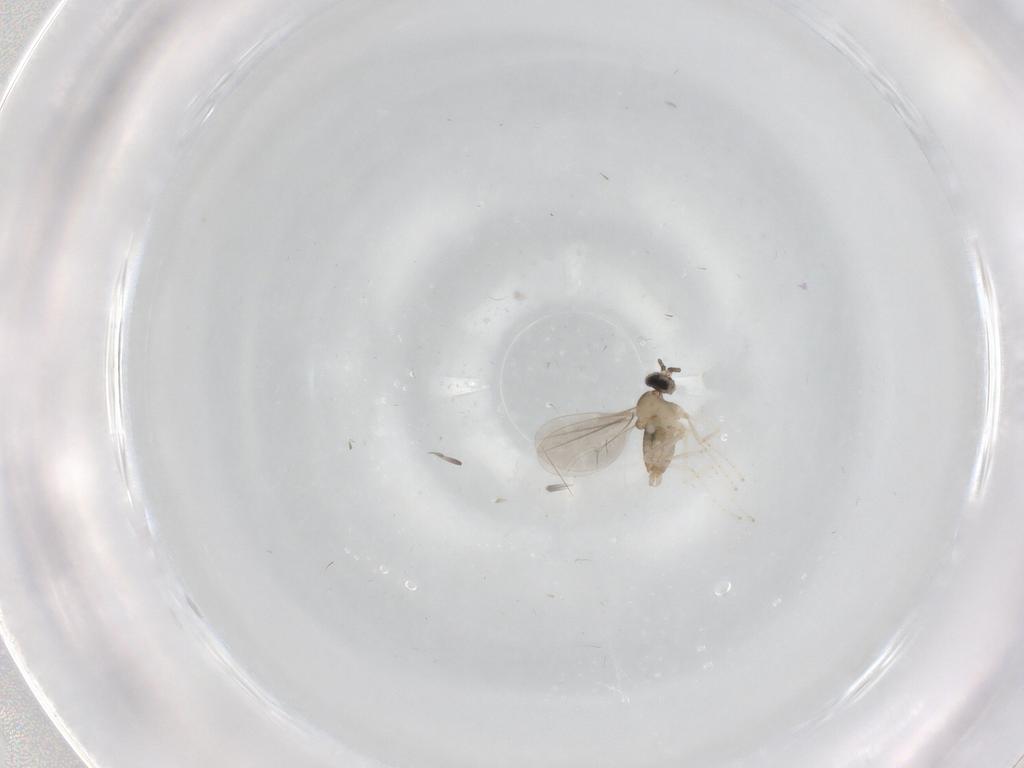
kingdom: Animalia
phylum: Arthropoda
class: Insecta
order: Diptera
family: Cecidomyiidae
